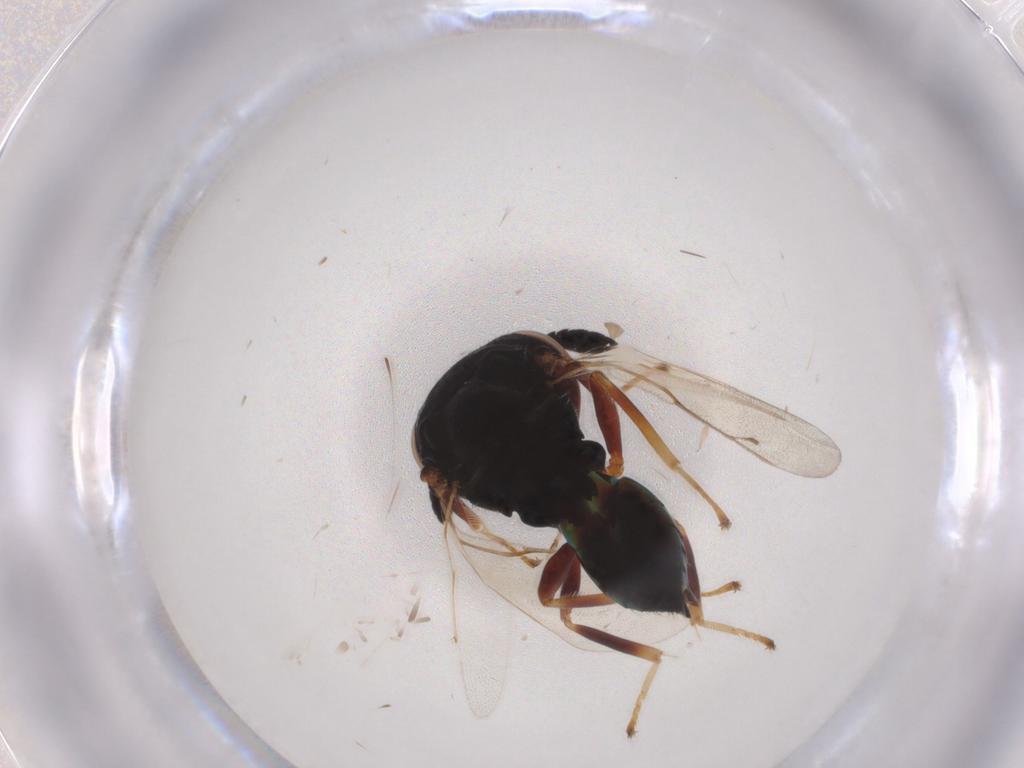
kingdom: Animalia
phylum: Arthropoda
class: Insecta
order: Hymenoptera
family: Pteromalidae
